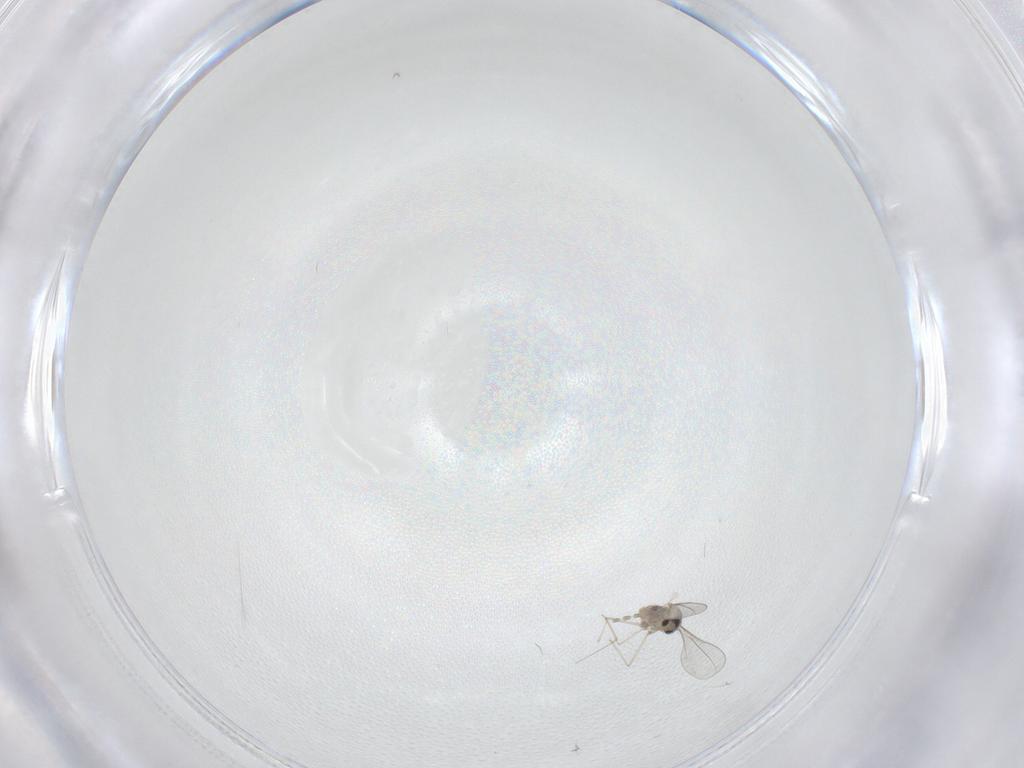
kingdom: Animalia
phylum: Arthropoda
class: Insecta
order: Diptera
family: Cecidomyiidae
